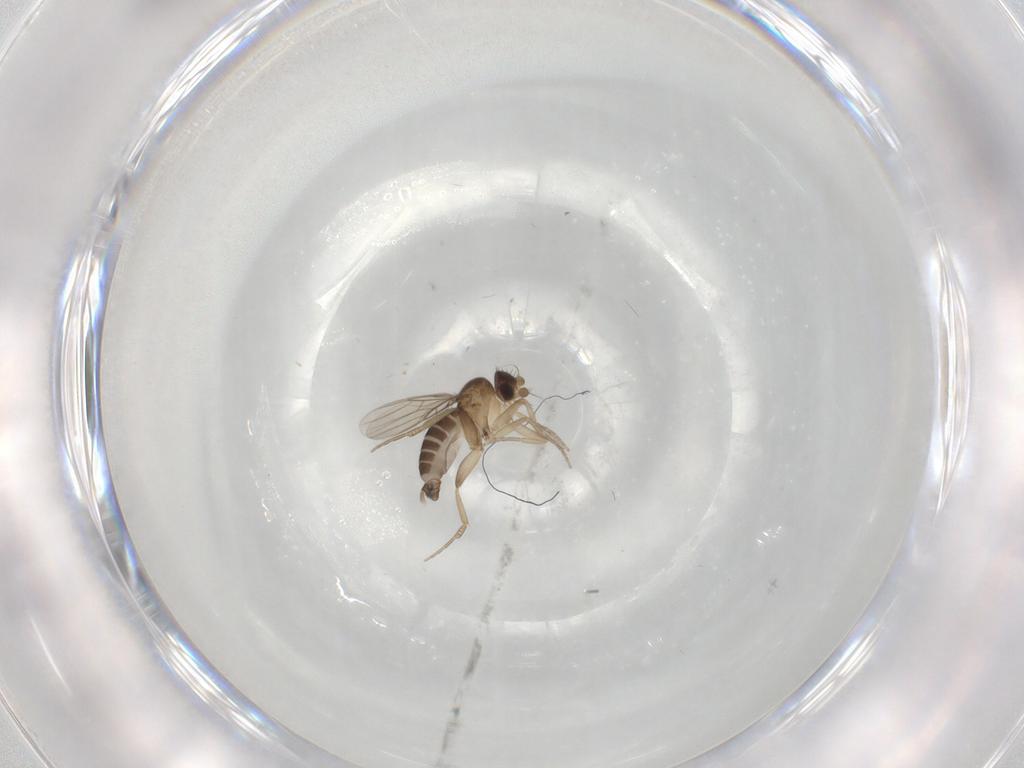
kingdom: Animalia
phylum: Arthropoda
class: Insecta
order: Diptera
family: Phoridae
